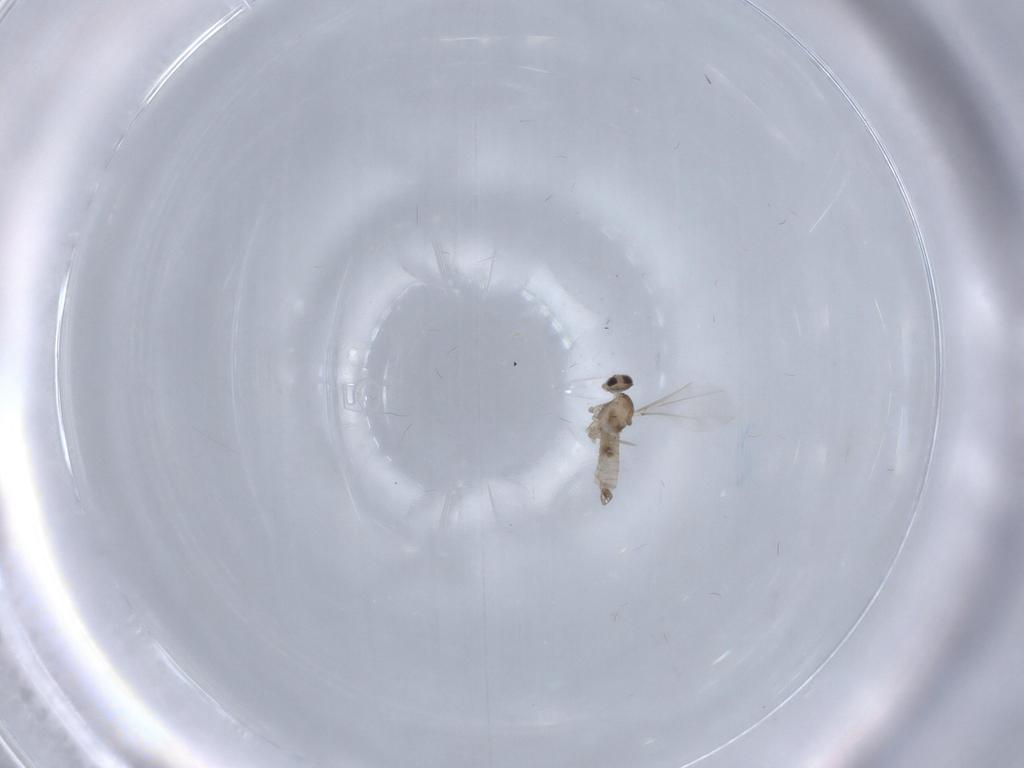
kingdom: Animalia
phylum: Arthropoda
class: Insecta
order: Diptera
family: Cecidomyiidae
